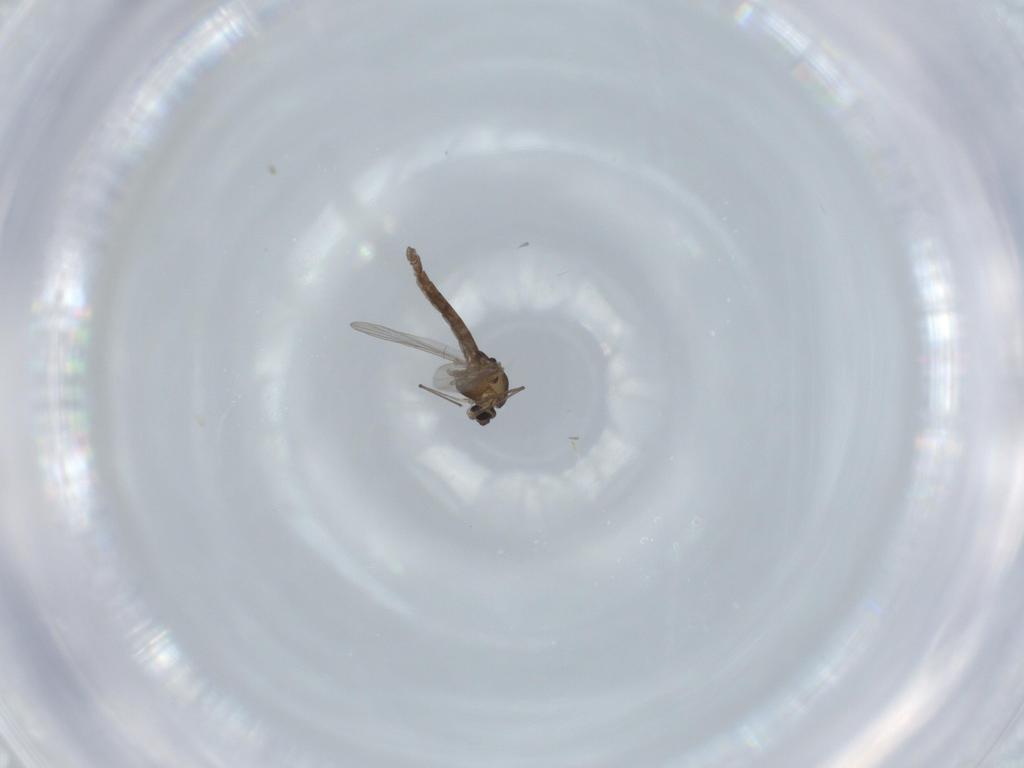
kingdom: Animalia
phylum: Arthropoda
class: Insecta
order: Diptera
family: Chironomidae
